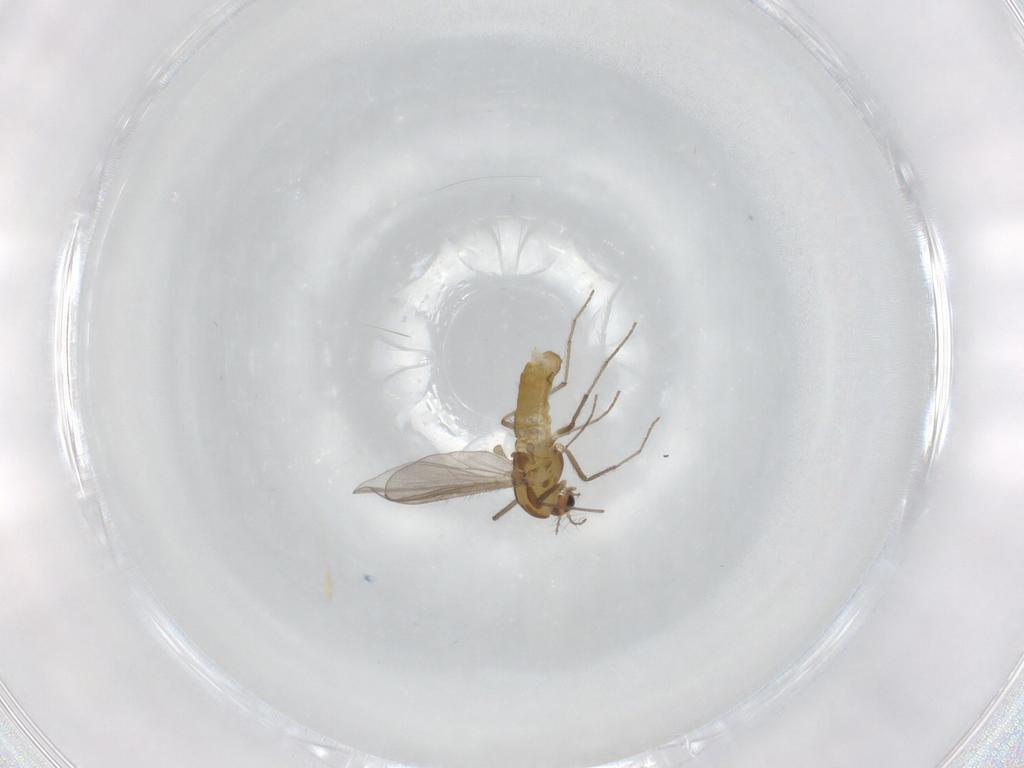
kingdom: Animalia
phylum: Arthropoda
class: Insecta
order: Diptera
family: Chironomidae
